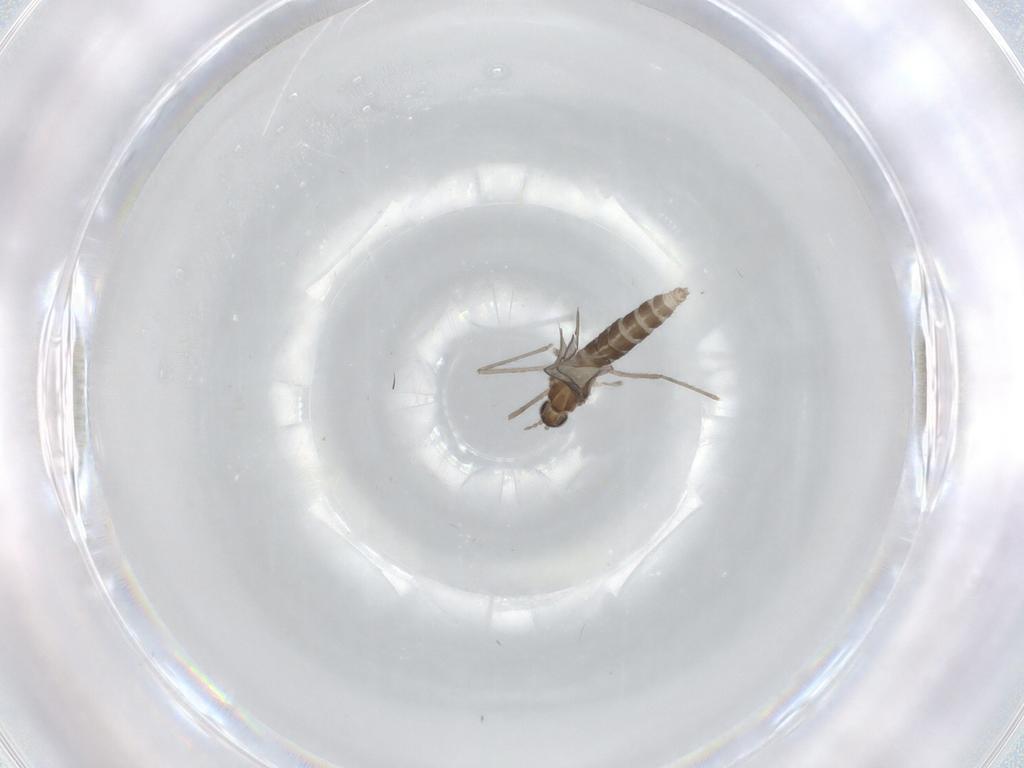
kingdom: Animalia
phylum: Arthropoda
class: Insecta
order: Diptera
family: Cecidomyiidae
